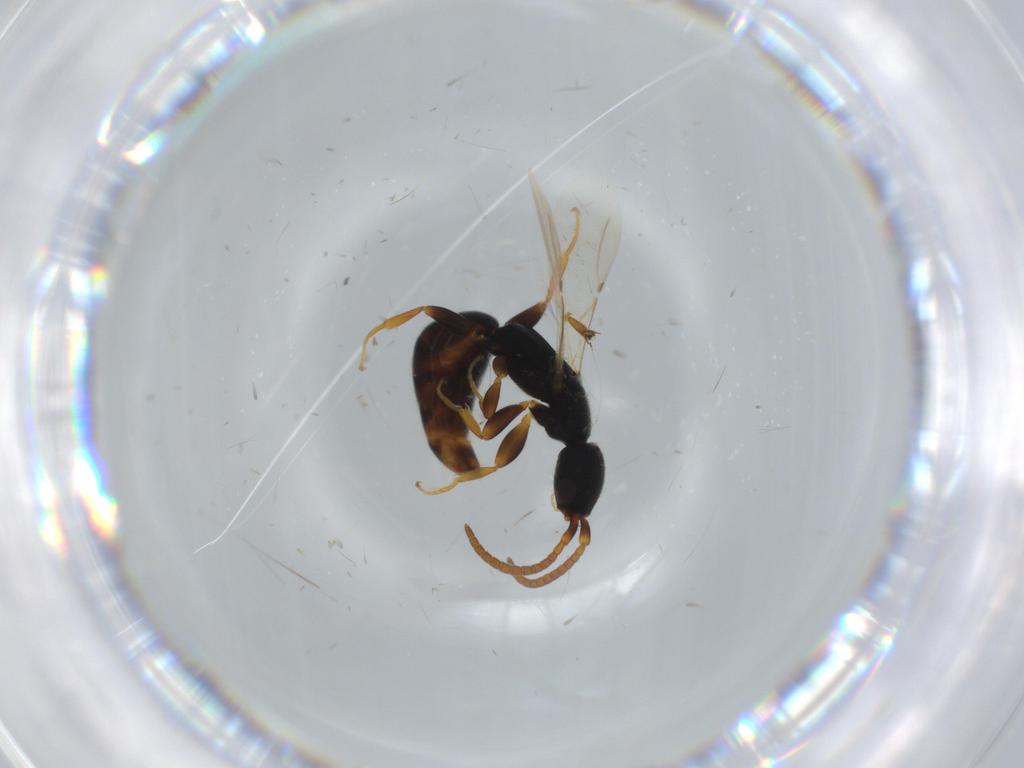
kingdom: Animalia
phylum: Arthropoda
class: Insecta
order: Hymenoptera
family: Bethylidae
